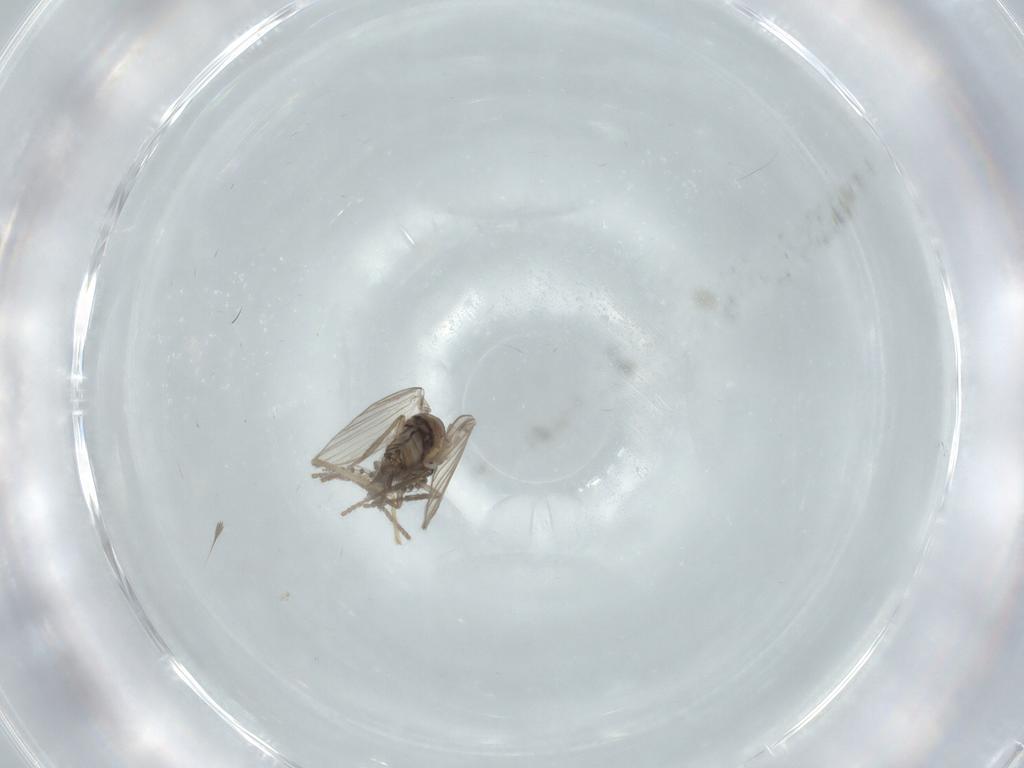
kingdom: Animalia
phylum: Arthropoda
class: Insecta
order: Diptera
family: Psychodidae
